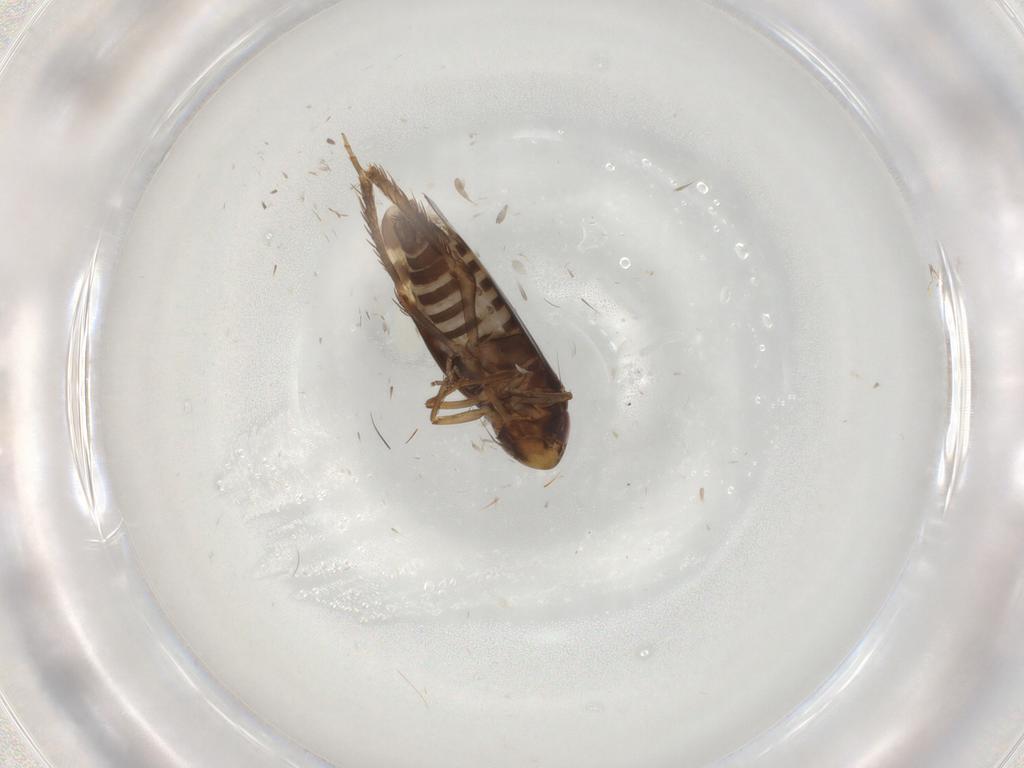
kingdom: Animalia
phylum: Arthropoda
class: Insecta
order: Hemiptera
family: Cicadellidae
